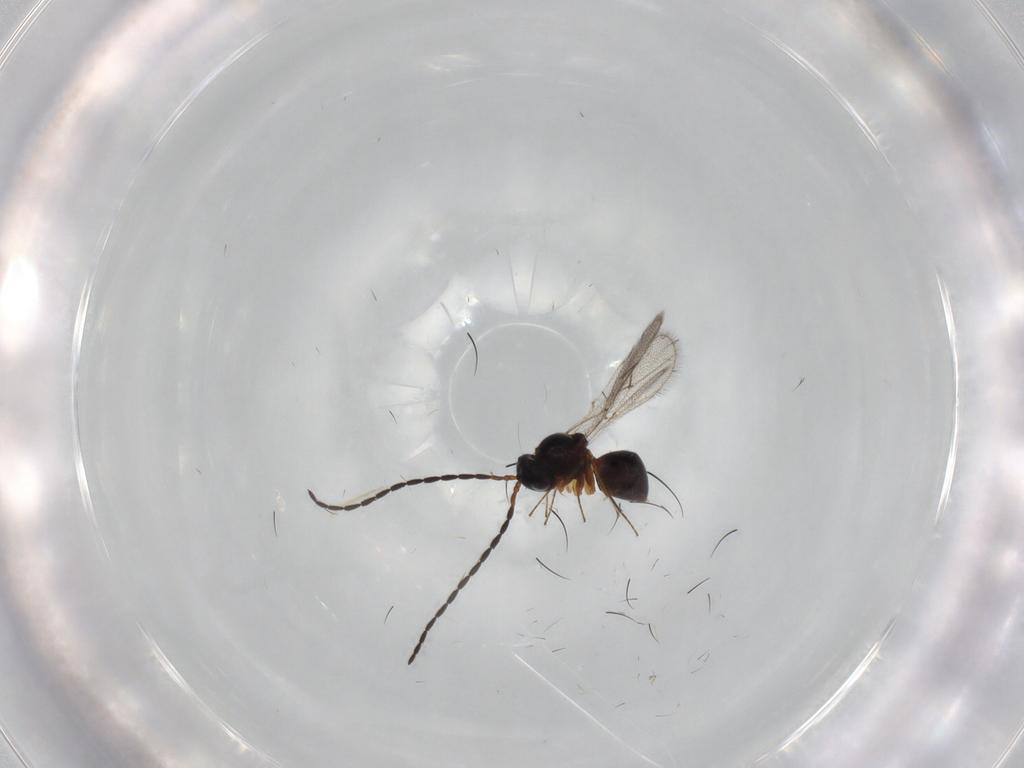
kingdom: Animalia
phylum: Arthropoda
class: Insecta
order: Hymenoptera
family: Figitidae
